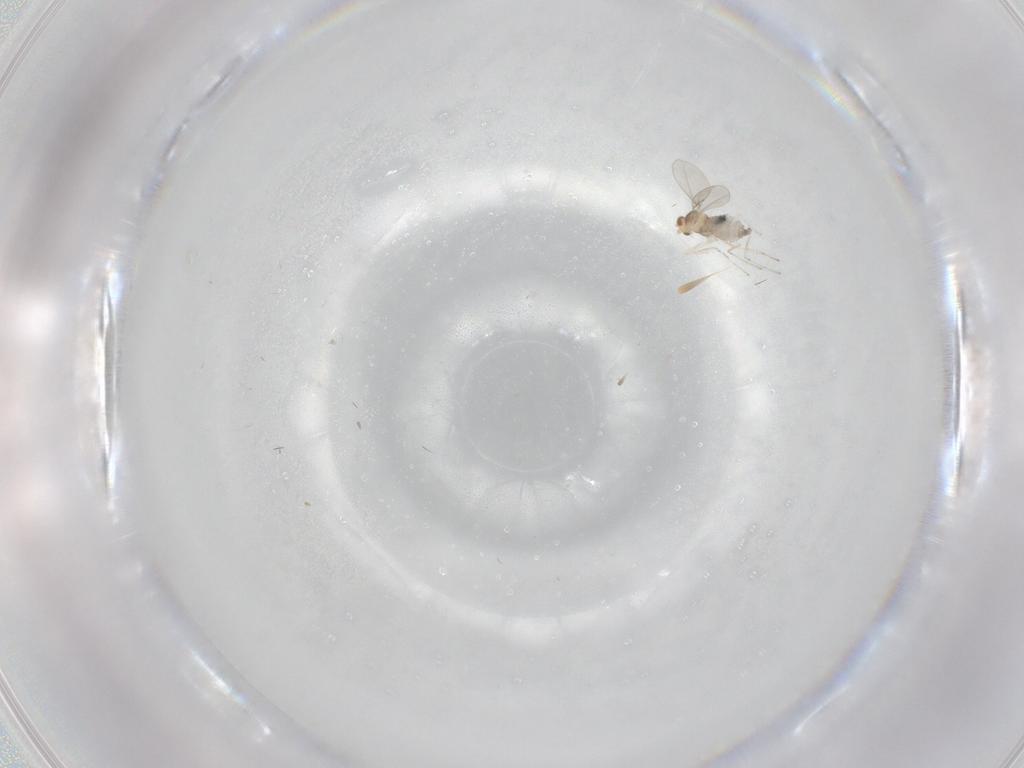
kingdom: Animalia
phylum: Arthropoda
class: Insecta
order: Diptera
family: Cecidomyiidae
